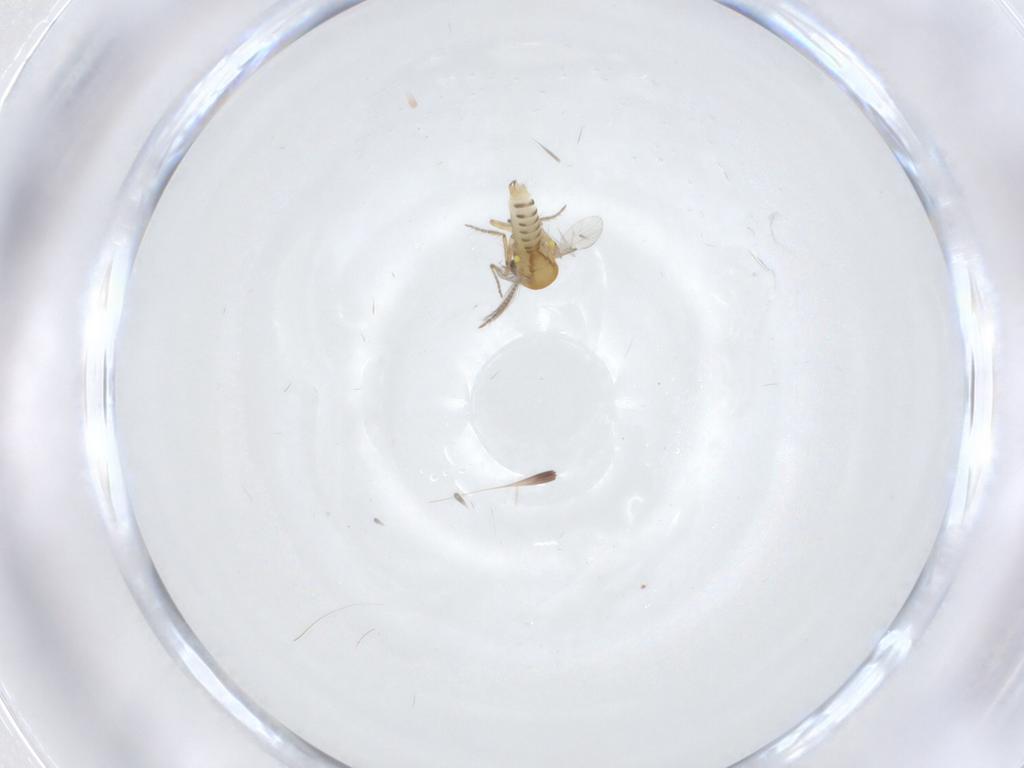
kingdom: Animalia
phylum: Arthropoda
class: Insecta
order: Diptera
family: Ceratopogonidae
